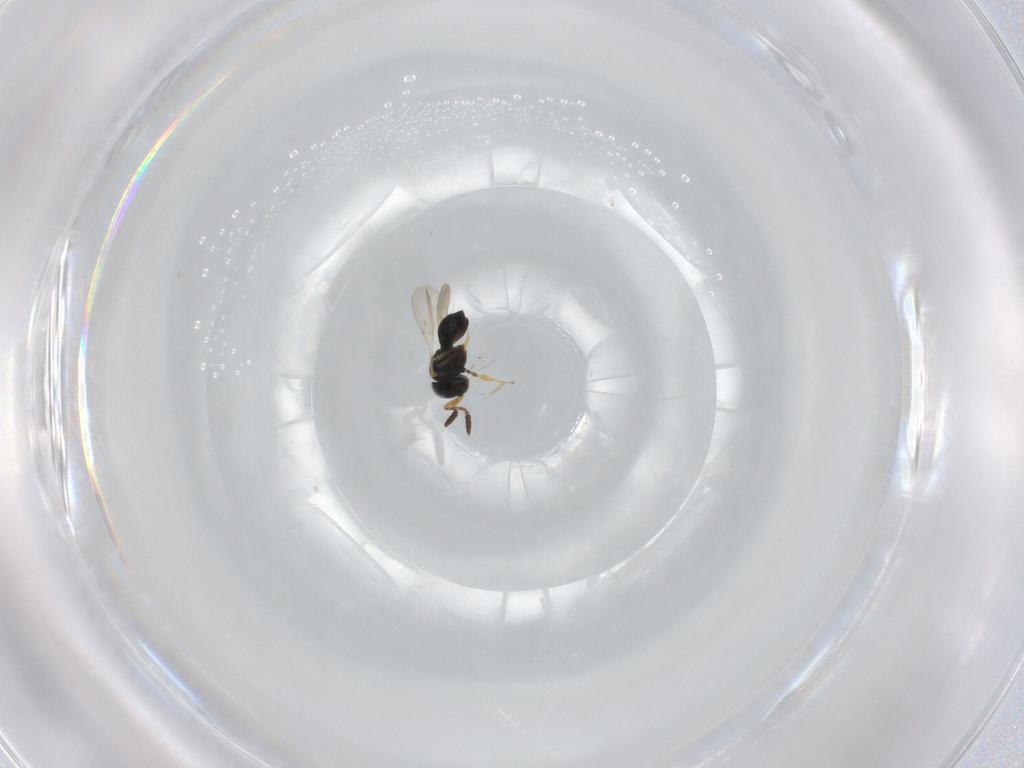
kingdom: Animalia
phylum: Arthropoda
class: Insecta
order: Hymenoptera
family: Scelionidae
